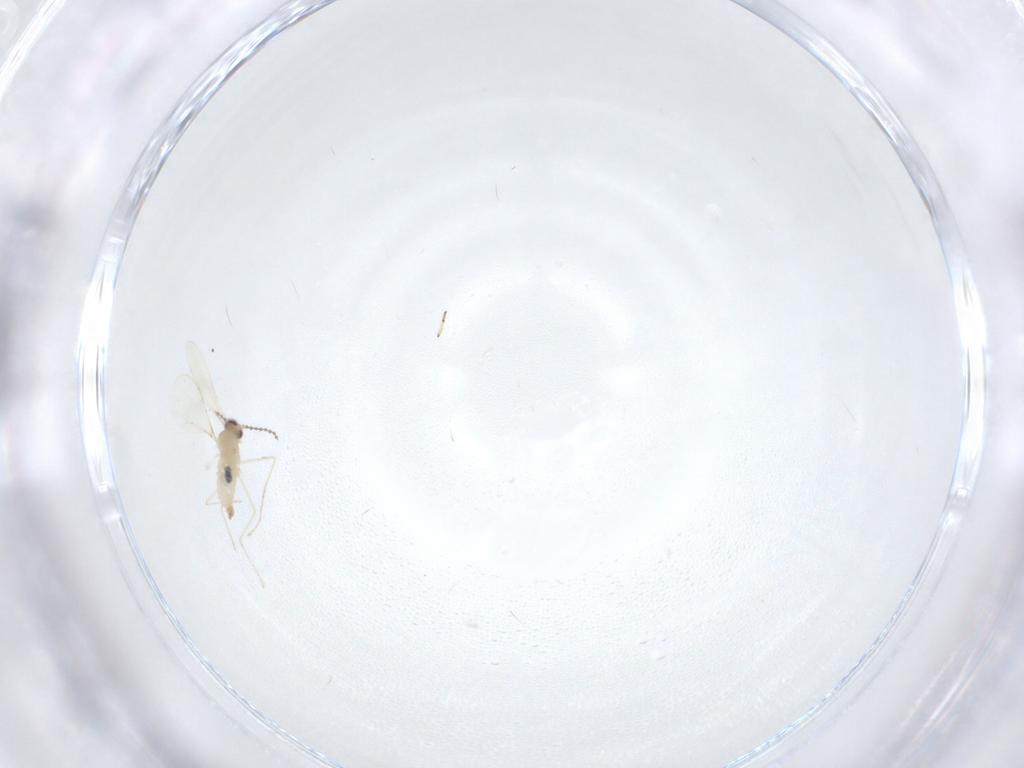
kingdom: Animalia
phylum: Arthropoda
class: Insecta
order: Diptera
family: Cecidomyiidae
